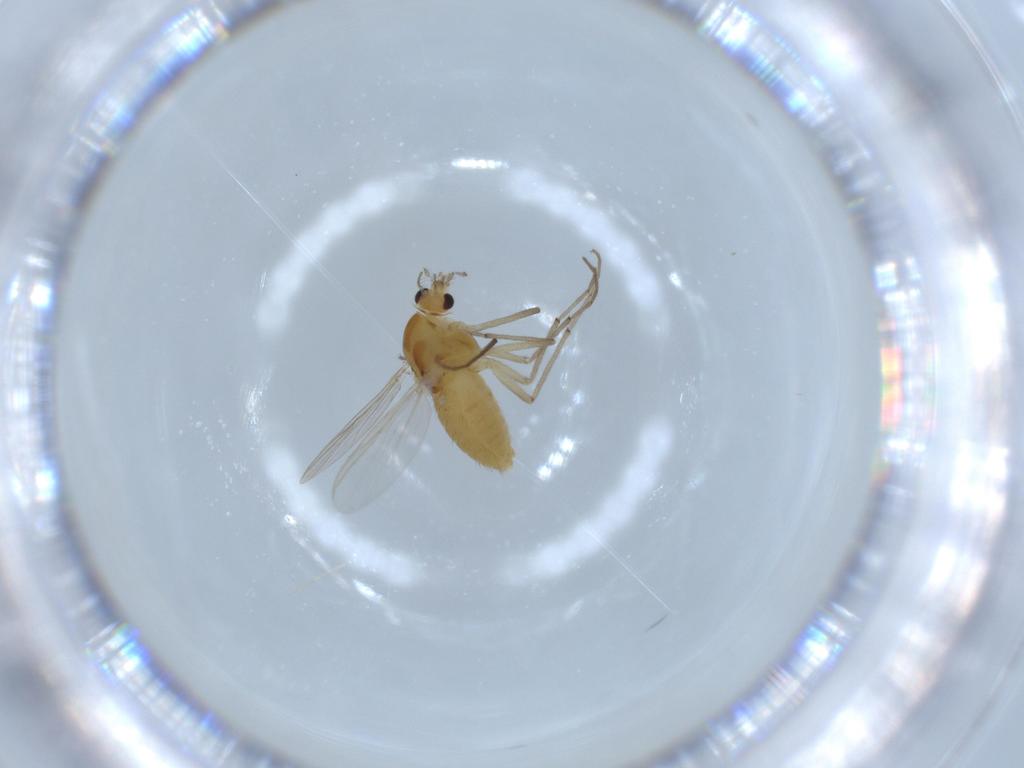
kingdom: Animalia
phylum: Arthropoda
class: Insecta
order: Diptera
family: Chironomidae
